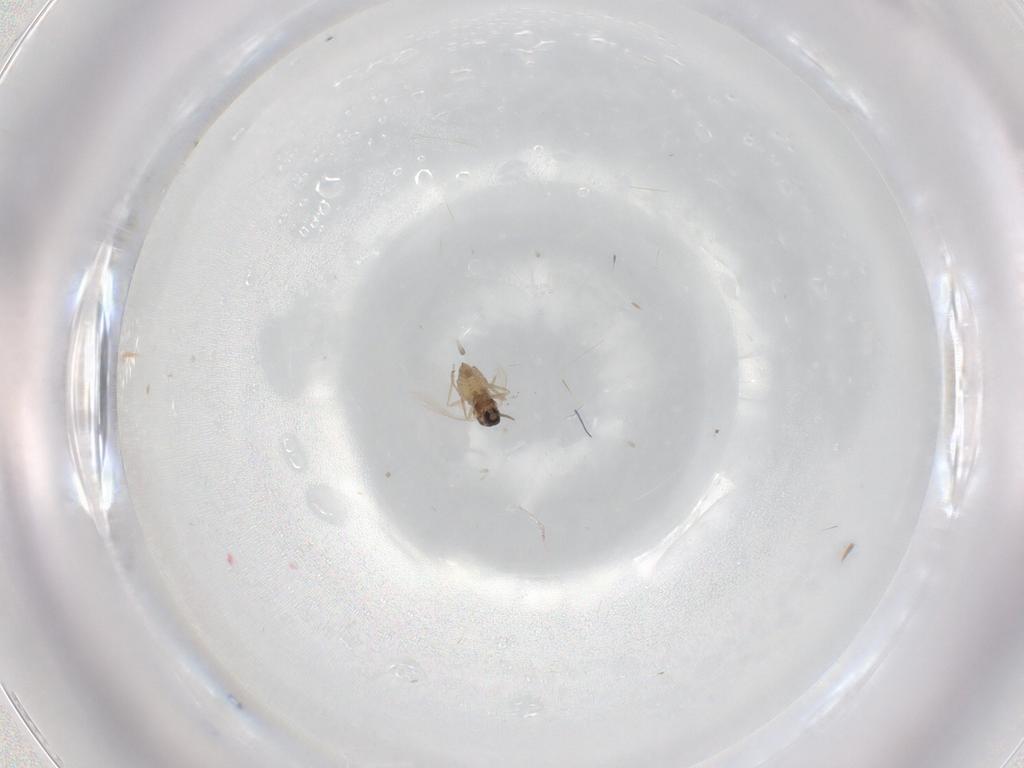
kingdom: Animalia
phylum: Arthropoda
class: Insecta
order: Diptera
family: Cecidomyiidae
